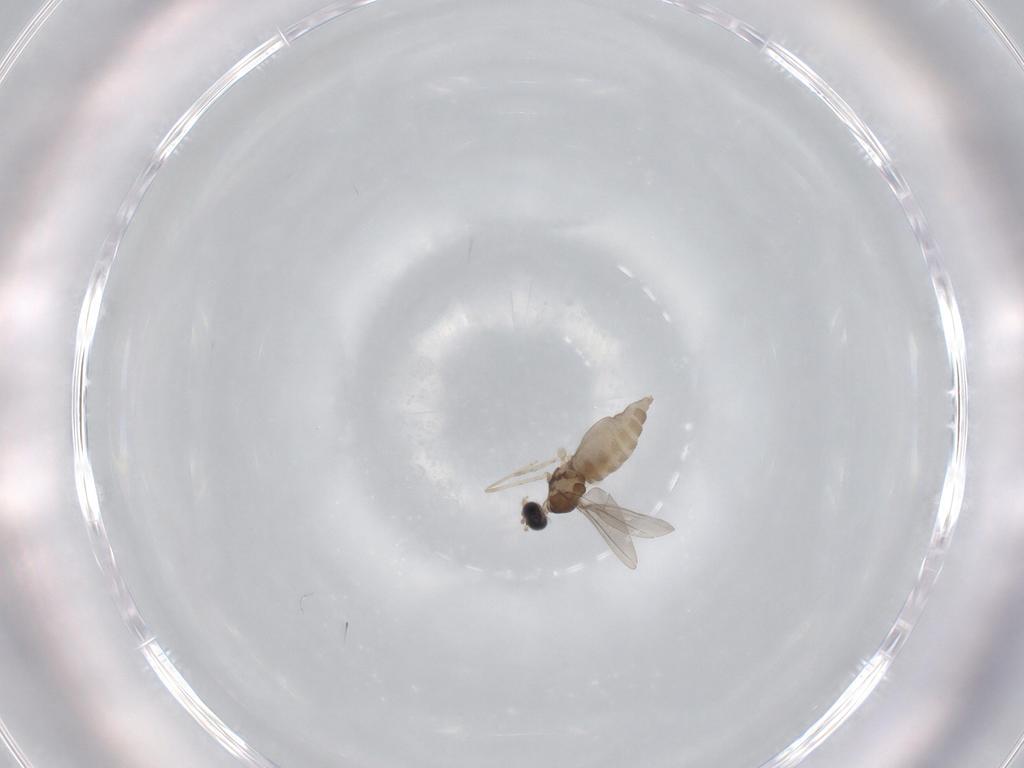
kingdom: Animalia
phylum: Arthropoda
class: Insecta
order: Diptera
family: Cecidomyiidae
